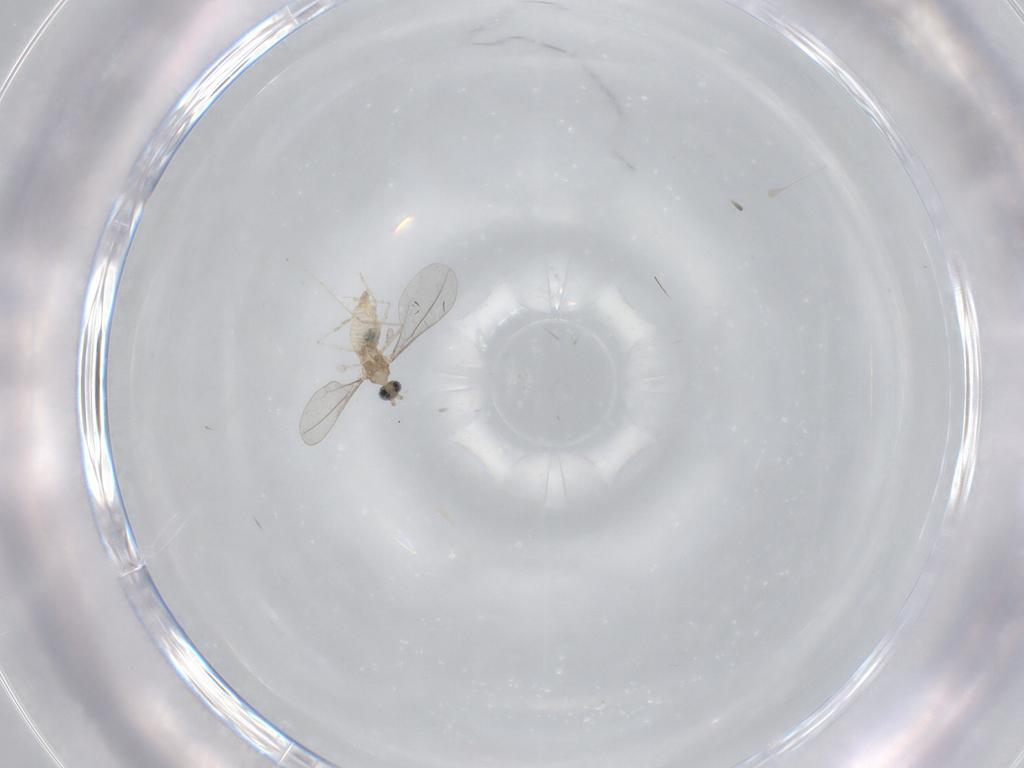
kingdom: Animalia
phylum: Arthropoda
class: Insecta
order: Diptera
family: Cecidomyiidae
